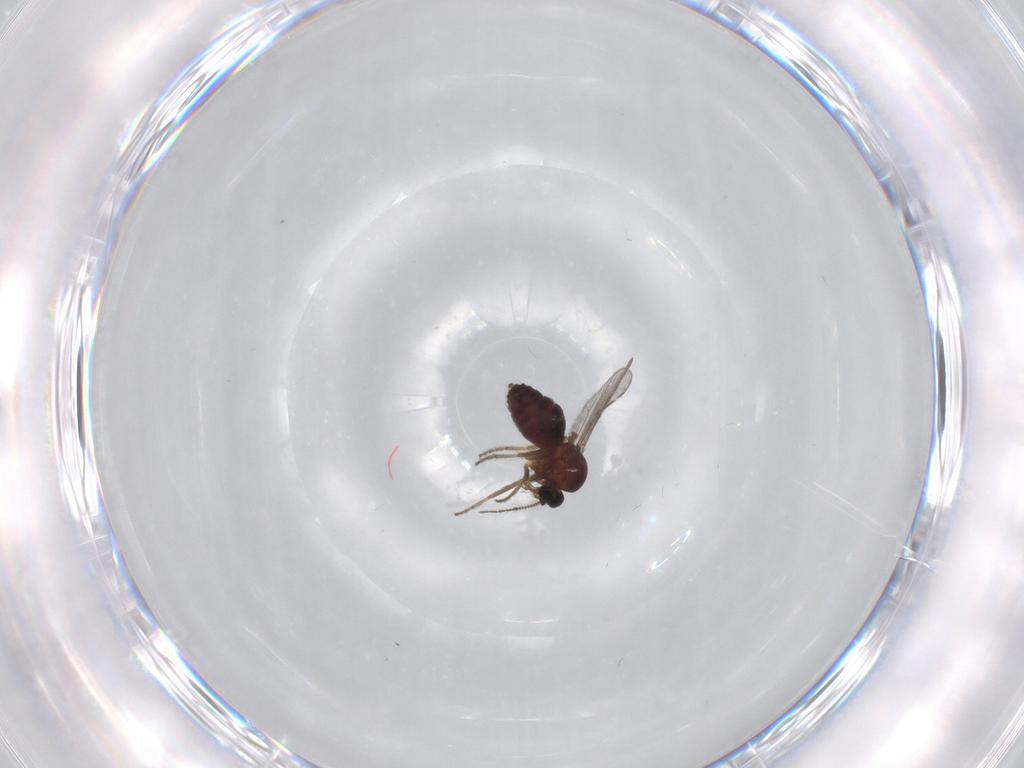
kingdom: Animalia
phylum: Arthropoda
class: Insecta
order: Diptera
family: Ceratopogonidae
